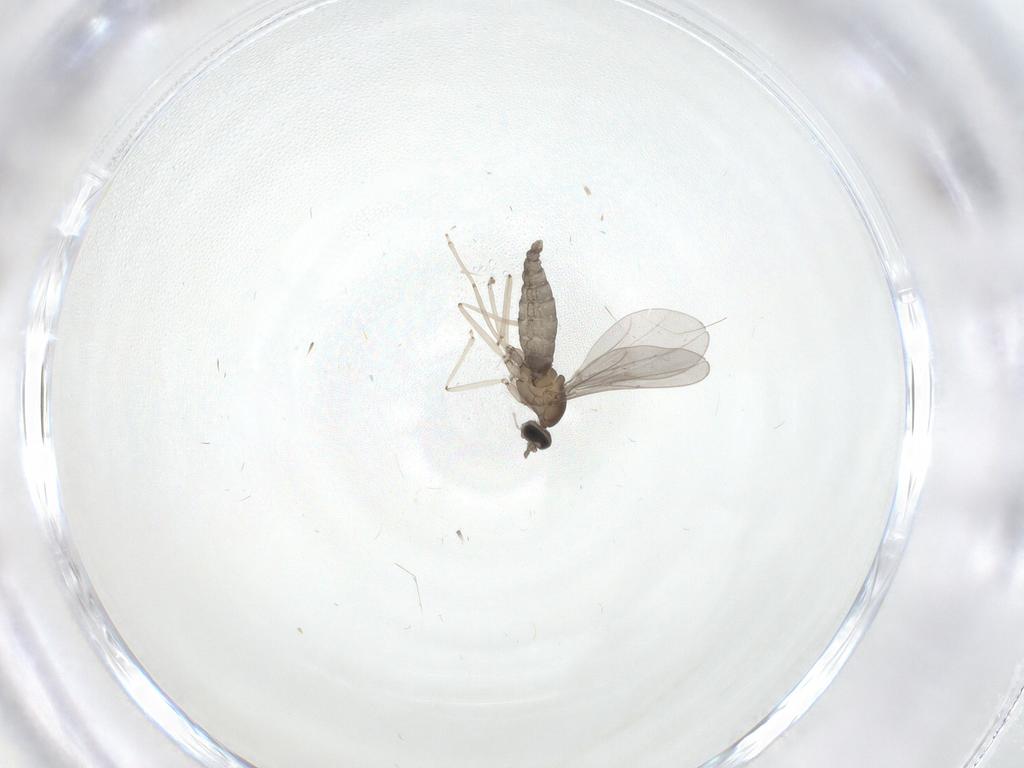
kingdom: Animalia
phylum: Arthropoda
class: Insecta
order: Diptera
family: Cecidomyiidae
